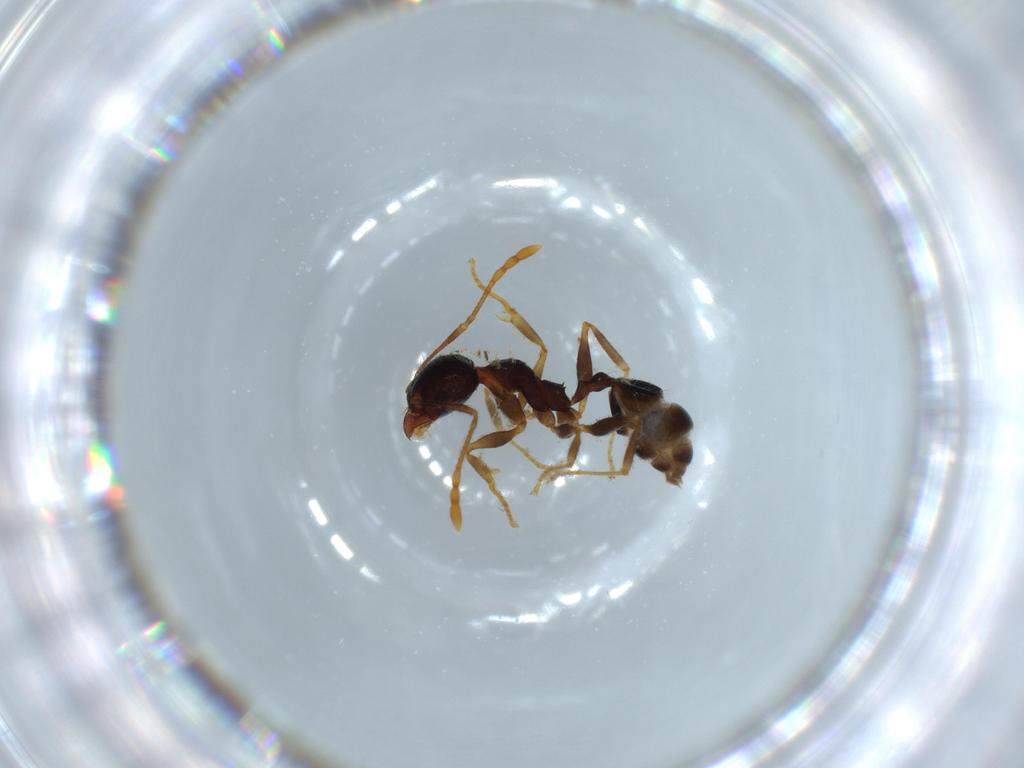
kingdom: Animalia
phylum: Arthropoda
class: Insecta
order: Hymenoptera
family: Formicidae
